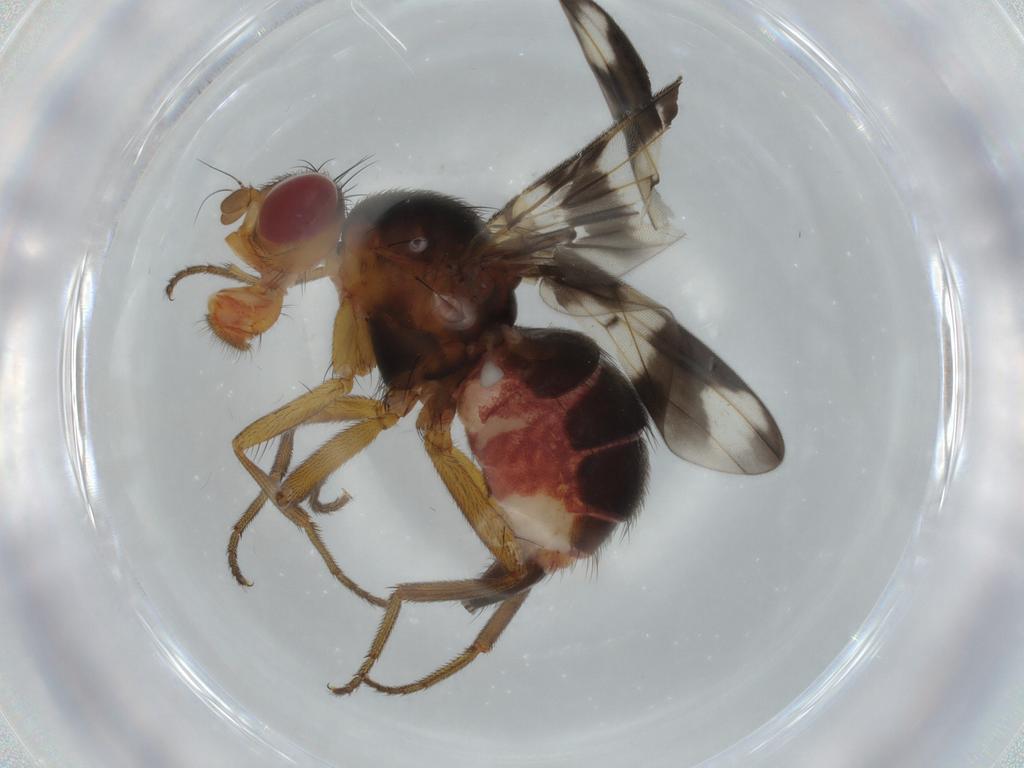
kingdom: Animalia
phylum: Arthropoda
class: Insecta
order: Diptera
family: Richardiidae
